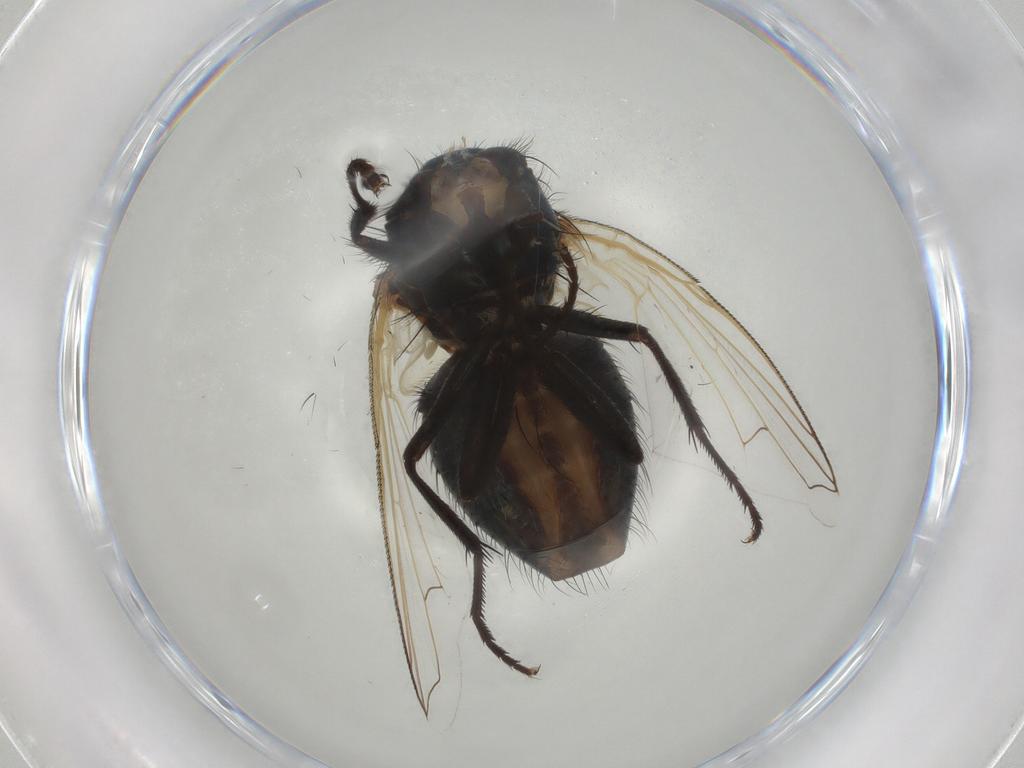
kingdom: Animalia
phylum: Arthropoda
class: Insecta
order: Diptera
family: Muscidae
